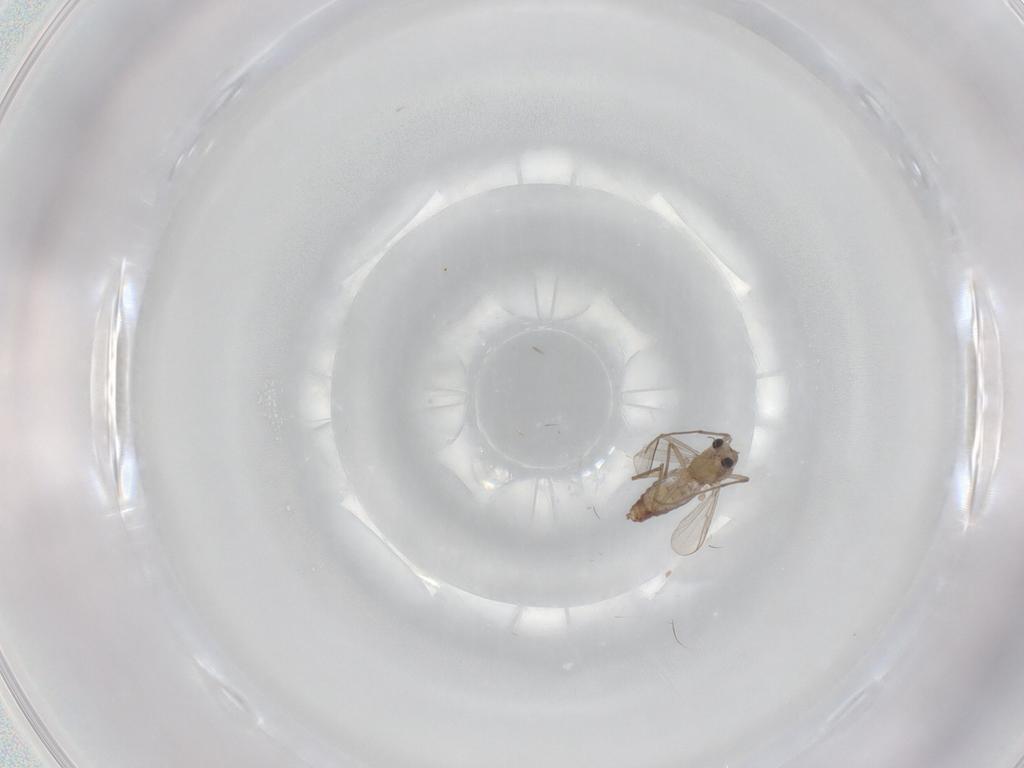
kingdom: Animalia
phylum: Arthropoda
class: Insecta
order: Diptera
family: Chironomidae
